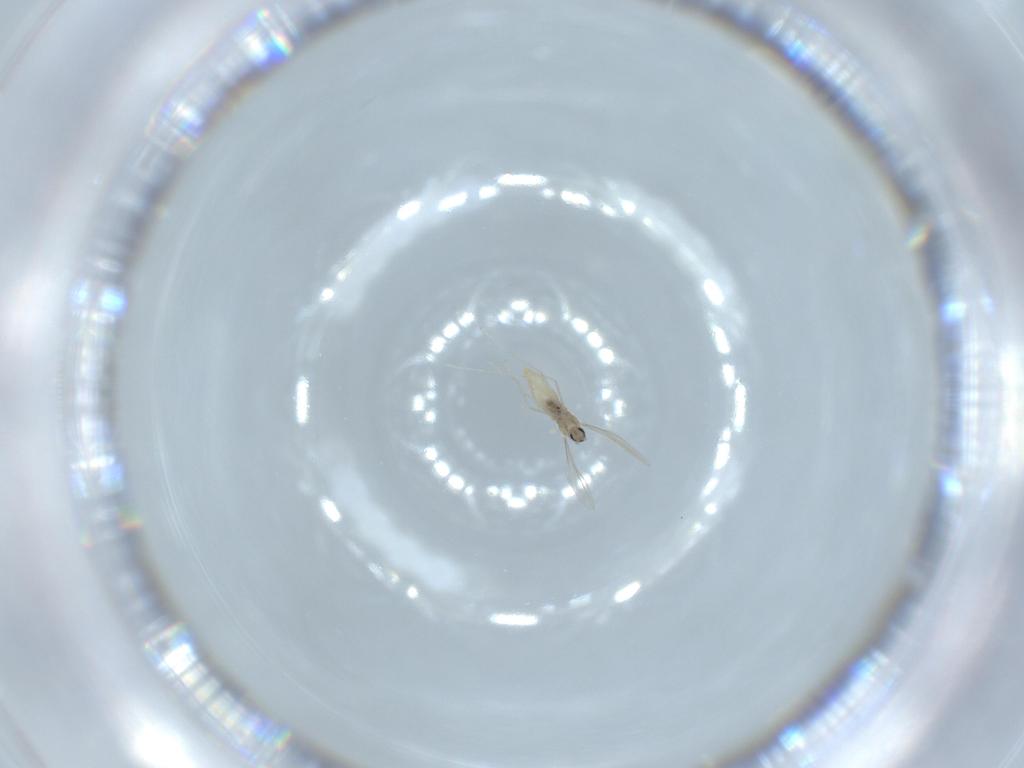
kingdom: Animalia
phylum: Arthropoda
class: Insecta
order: Diptera
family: Cecidomyiidae
